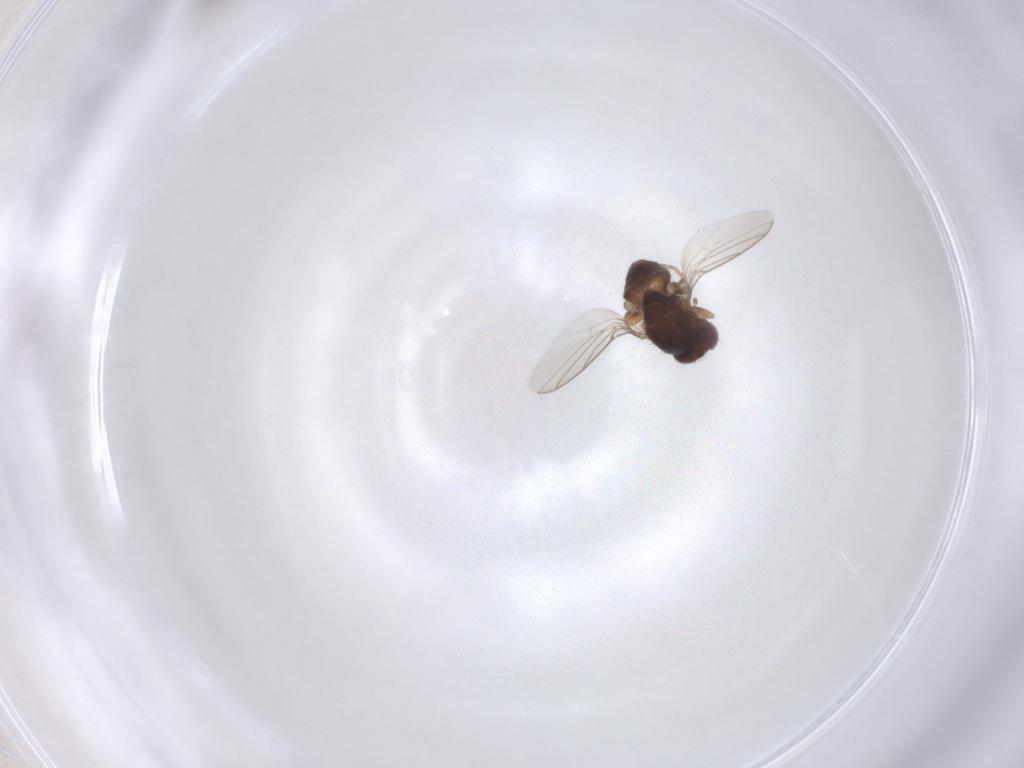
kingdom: Animalia
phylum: Arthropoda
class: Insecta
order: Diptera
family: Chloropidae
